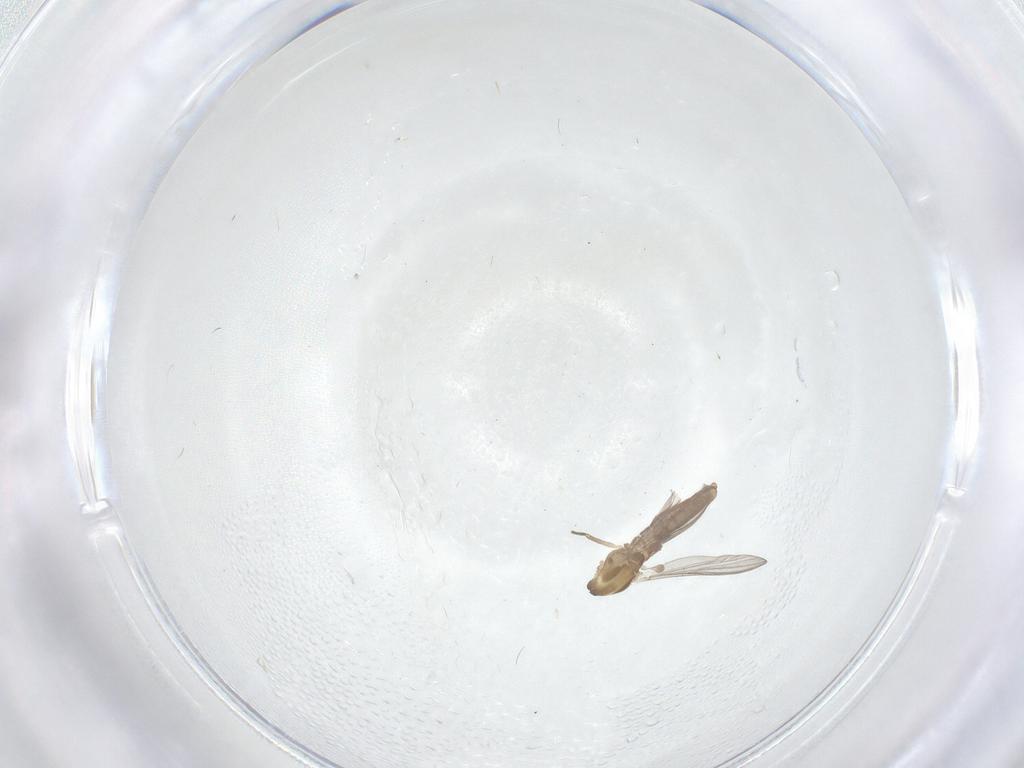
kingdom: Animalia
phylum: Arthropoda
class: Insecta
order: Diptera
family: Chironomidae
